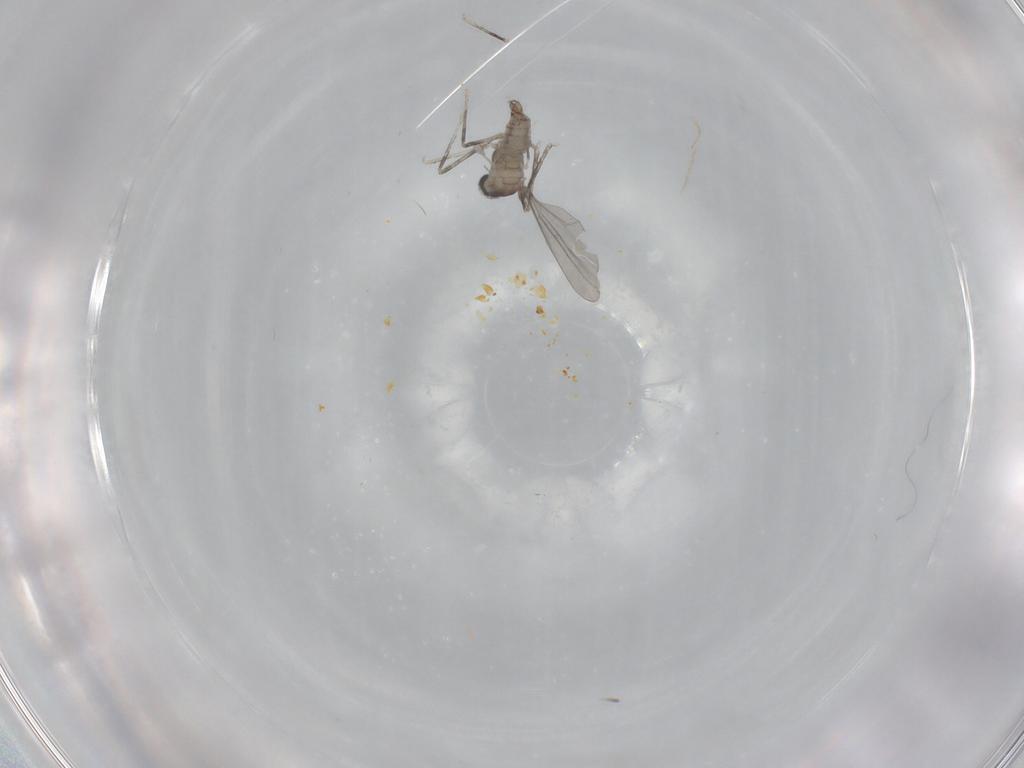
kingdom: Animalia
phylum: Arthropoda
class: Insecta
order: Diptera
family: Cecidomyiidae
